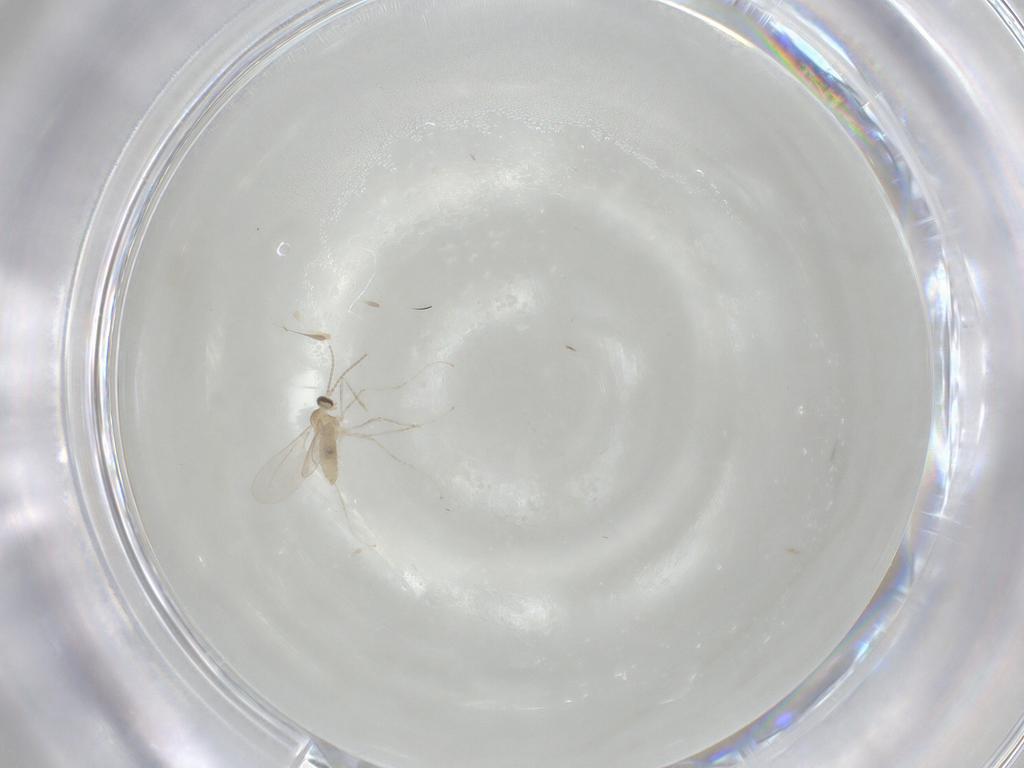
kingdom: Animalia
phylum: Arthropoda
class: Insecta
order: Diptera
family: Cecidomyiidae
